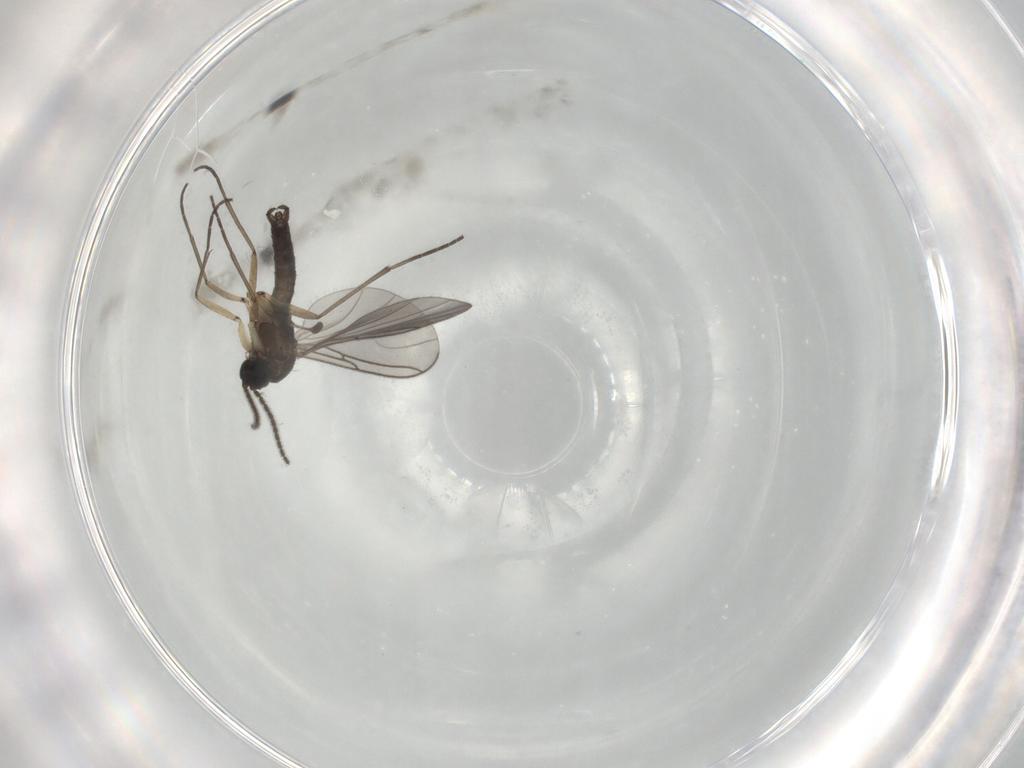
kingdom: Animalia
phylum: Arthropoda
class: Insecta
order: Diptera
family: Sciaridae
